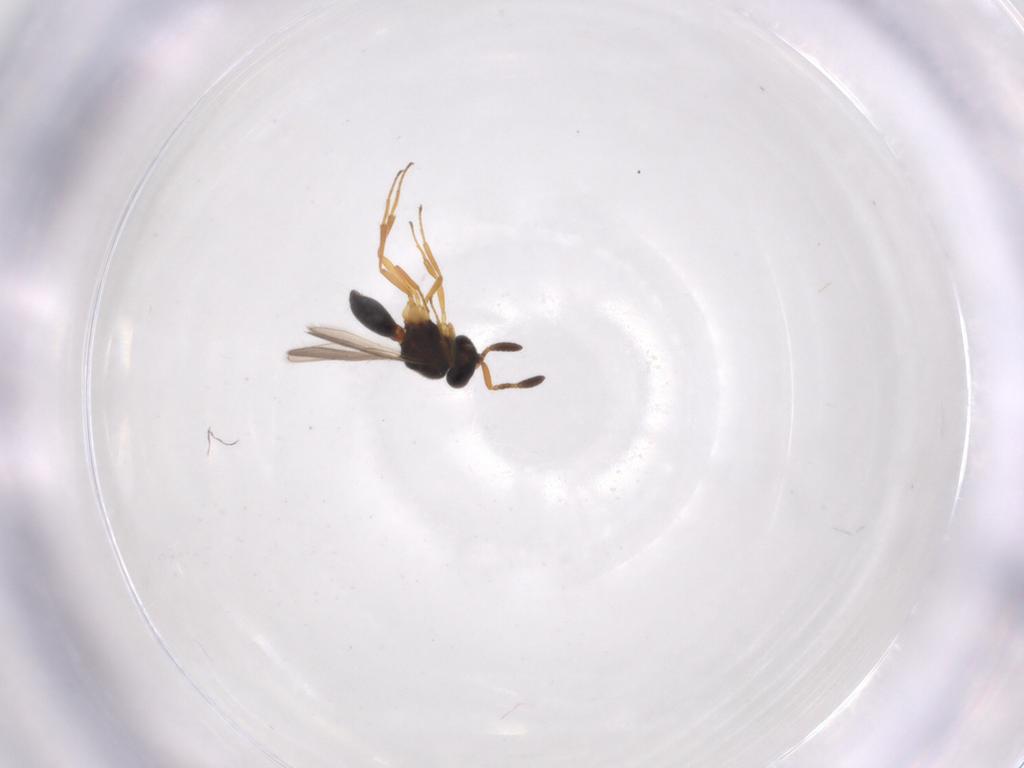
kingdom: Animalia
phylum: Arthropoda
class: Insecta
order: Hymenoptera
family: Scelionidae
